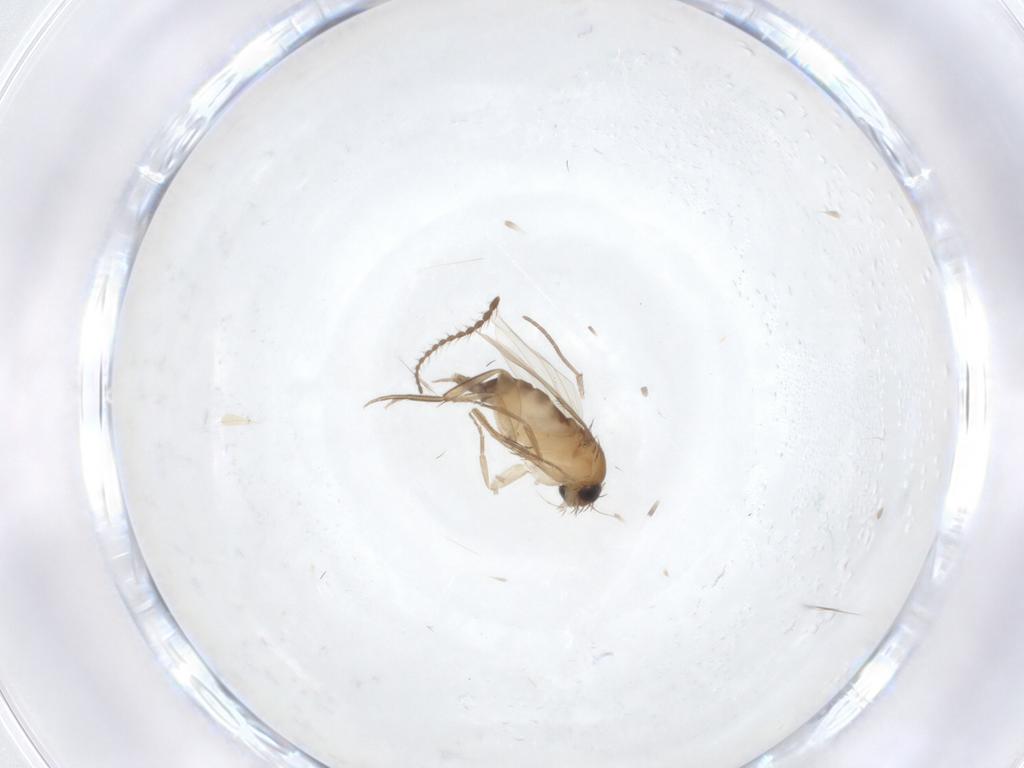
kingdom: Animalia
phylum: Arthropoda
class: Insecta
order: Diptera
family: Phoridae
